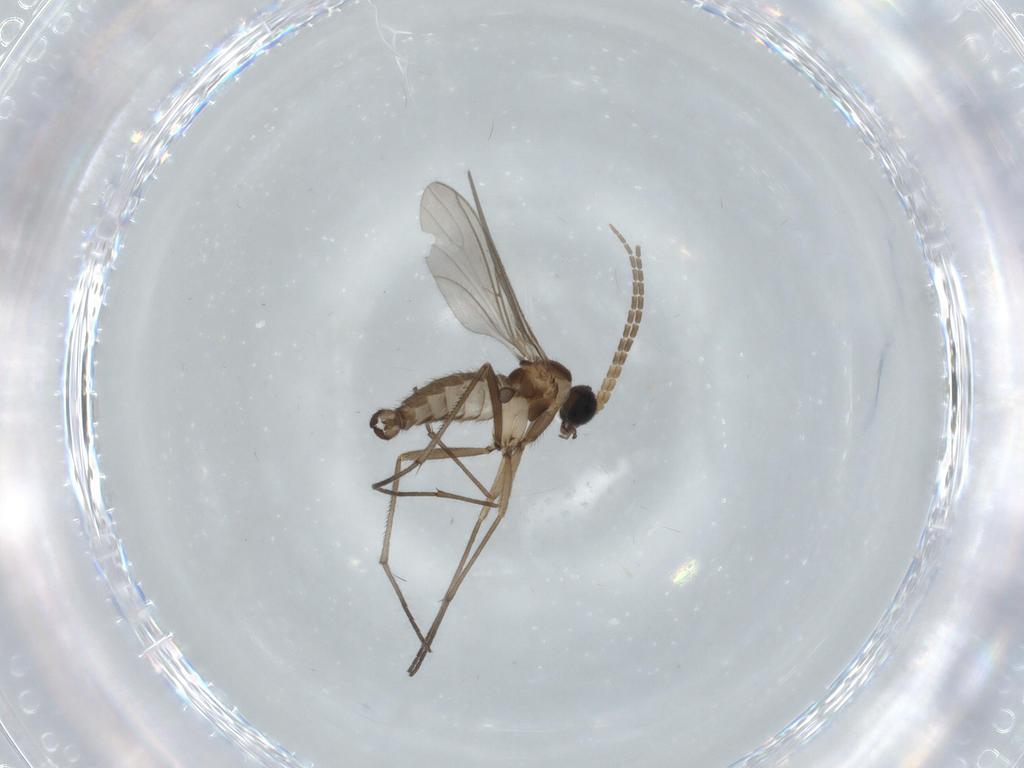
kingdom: Animalia
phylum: Arthropoda
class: Insecta
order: Diptera
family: Sciaridae
